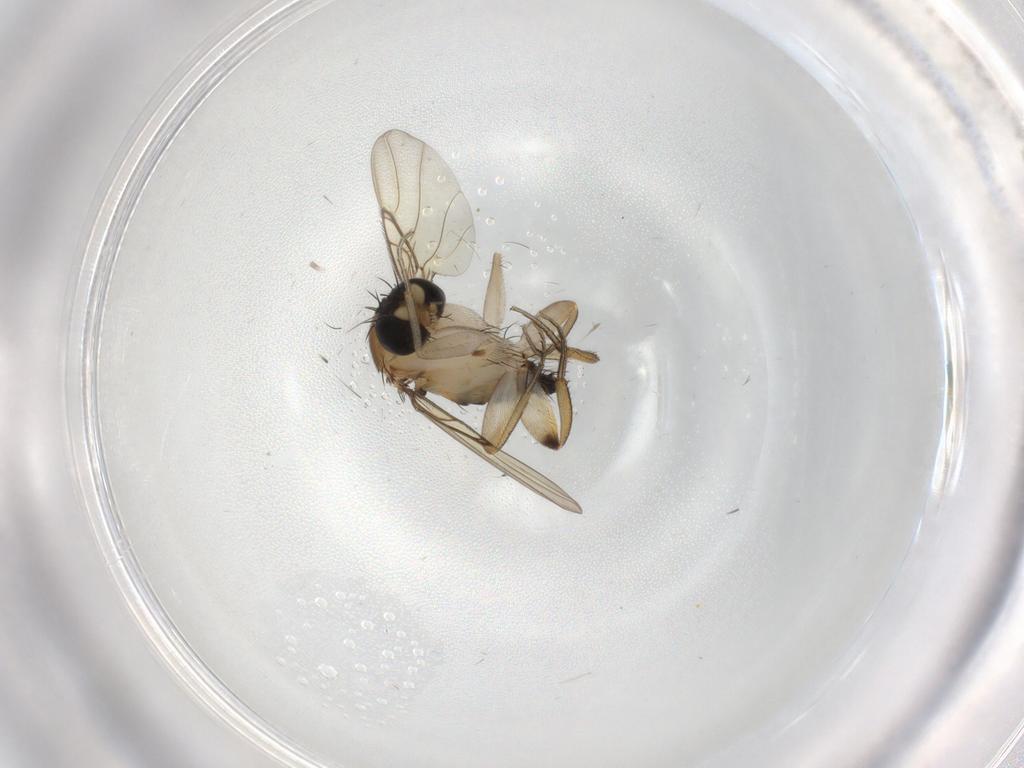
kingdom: Animalia
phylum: Arthropoda
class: Insecta
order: Diptera
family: Phoridae
